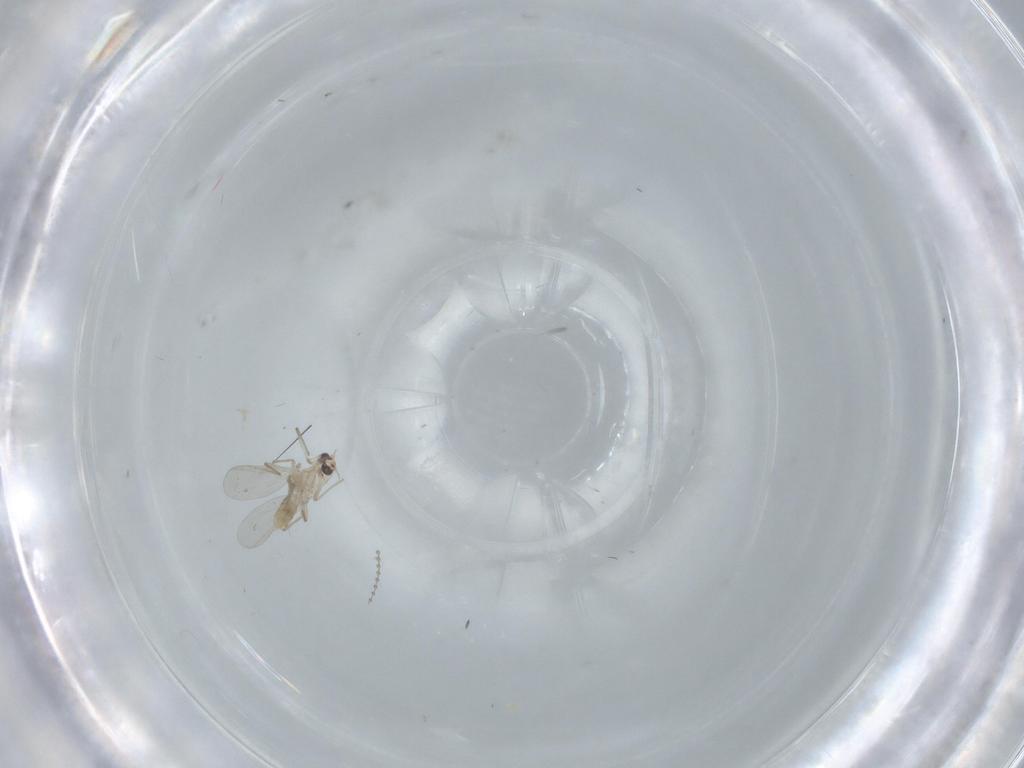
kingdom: Animalia
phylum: Arthropoda
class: Insecta
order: Diptera
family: Cecidomyiidae
